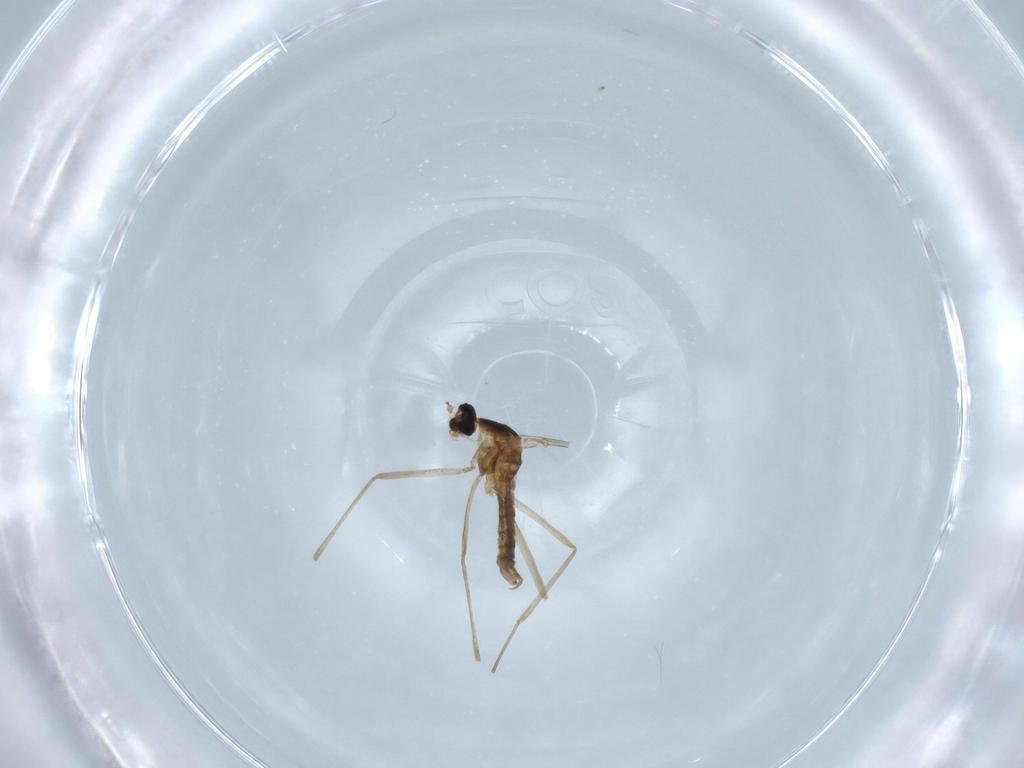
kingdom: Animalia
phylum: Arthropoda
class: Insecta
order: Diptera
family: Cecidomyiidae
